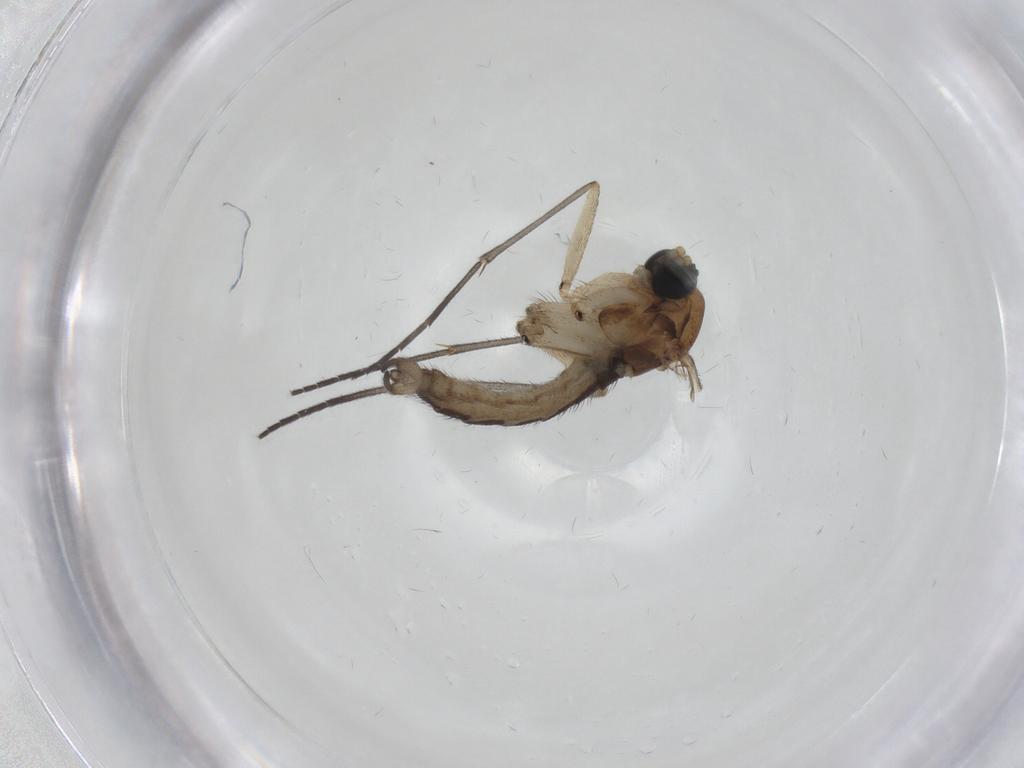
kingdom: Animalia
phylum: Arthropoda
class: Insecta
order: Diptera
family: Sciaridae
